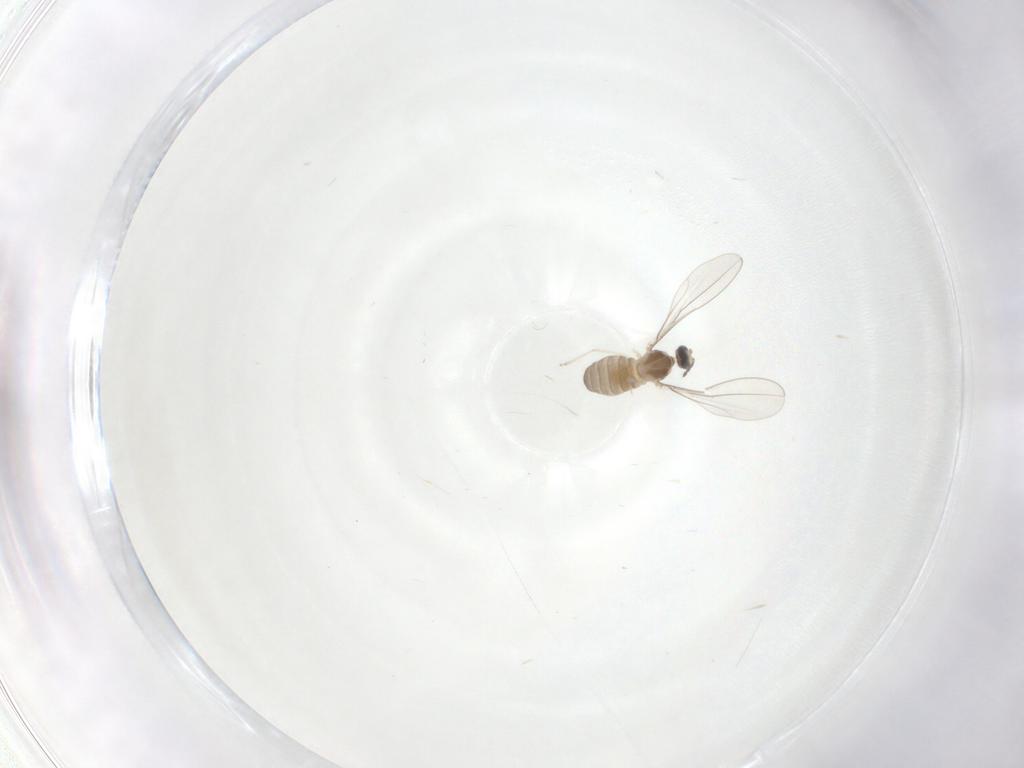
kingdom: Animalia
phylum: Arthropoda
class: Insecta
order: Diptera
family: Cecidomyiidae
